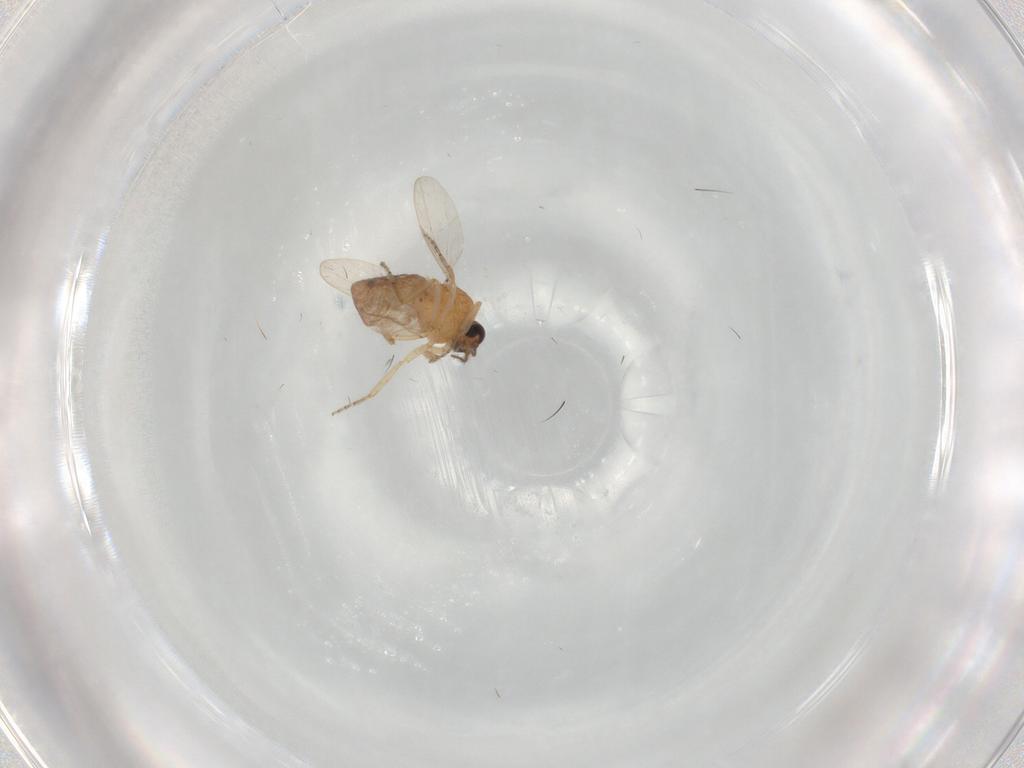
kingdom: Animalia
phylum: Arthropoda
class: Insecta
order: Diptera
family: Ceratopogonidae
